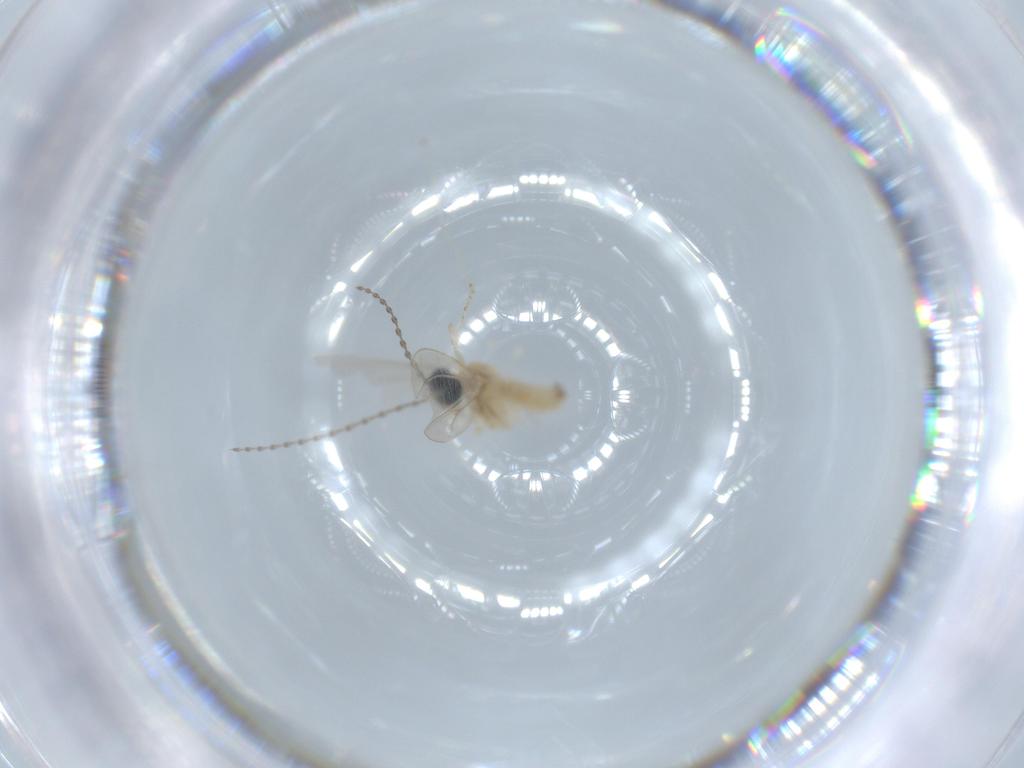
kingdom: Animalia
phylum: Arthropoda
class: Insecta
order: Diptera
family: Cecidomyiidae
